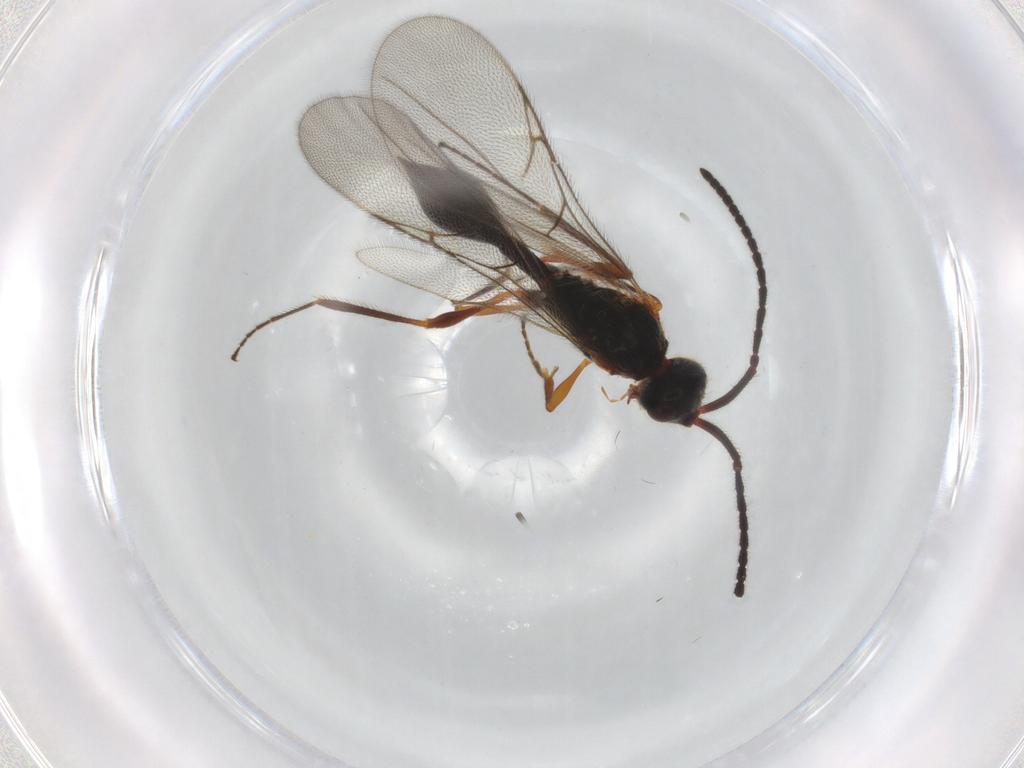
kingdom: Animalia
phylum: Arthropoda
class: Insecta
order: Hymenoptera
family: Diapriidae
